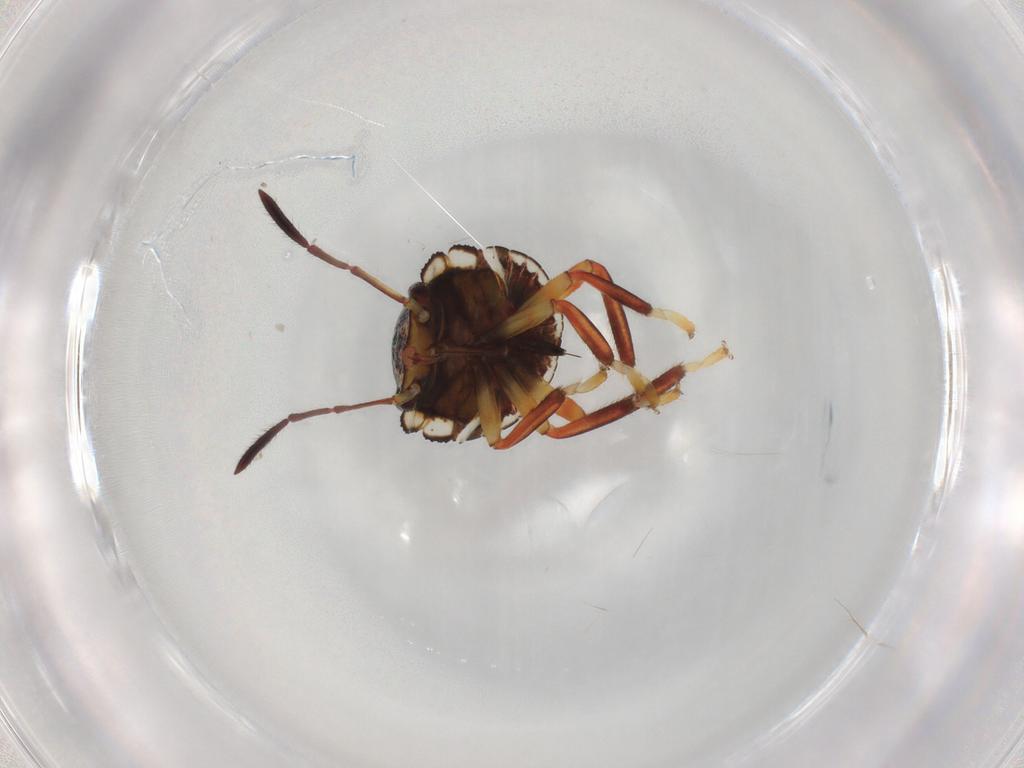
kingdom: Animalia
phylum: Arthropoda
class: Insecta
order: Hemiptera
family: Pentatomidae
